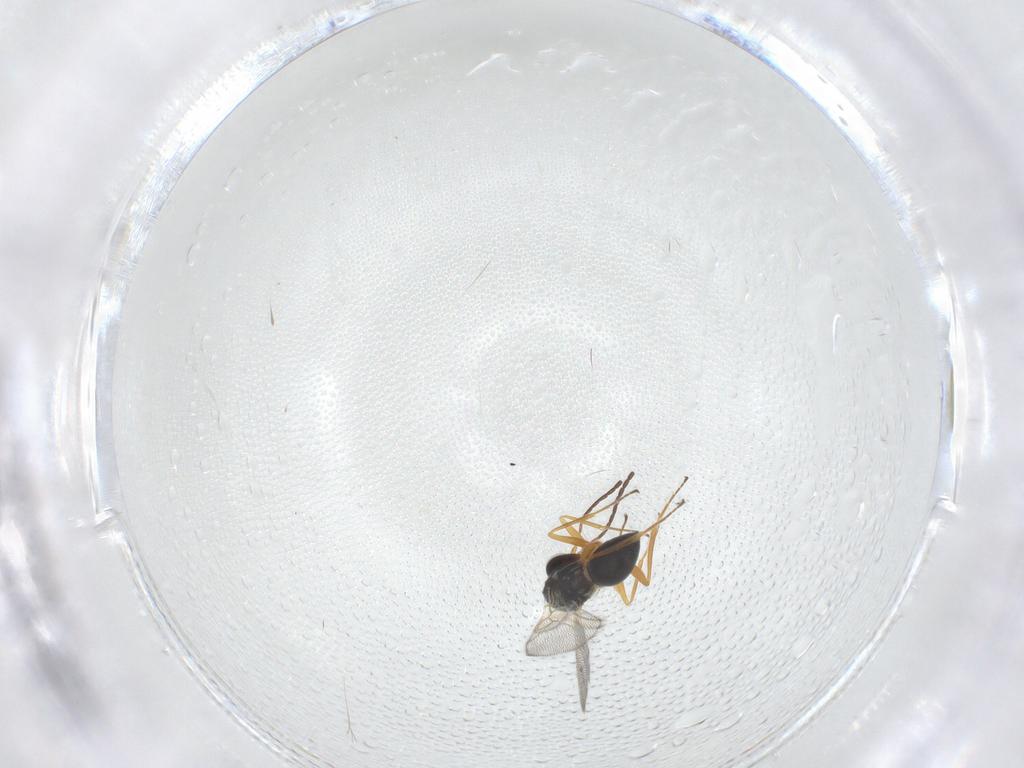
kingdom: Animalia
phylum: Arthropoda
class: Insecta
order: Hymenoptera
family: Figitidae
